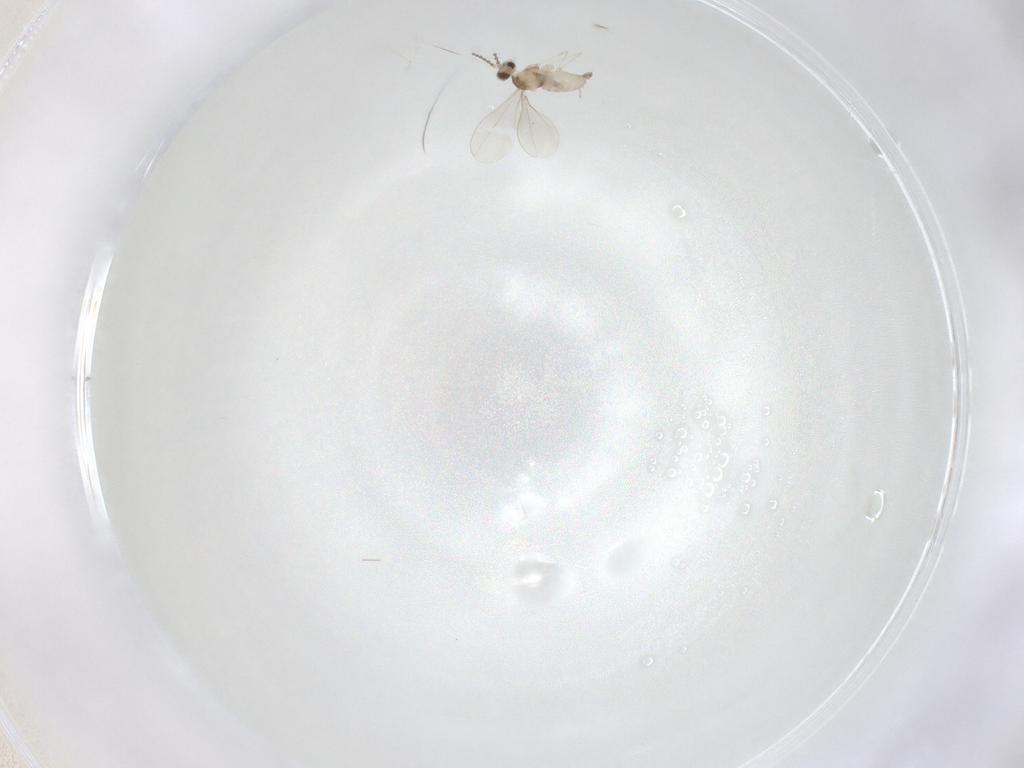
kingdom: Animalia
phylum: Arthropoda
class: Insecta
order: Diptera
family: Cecidomyiidae
